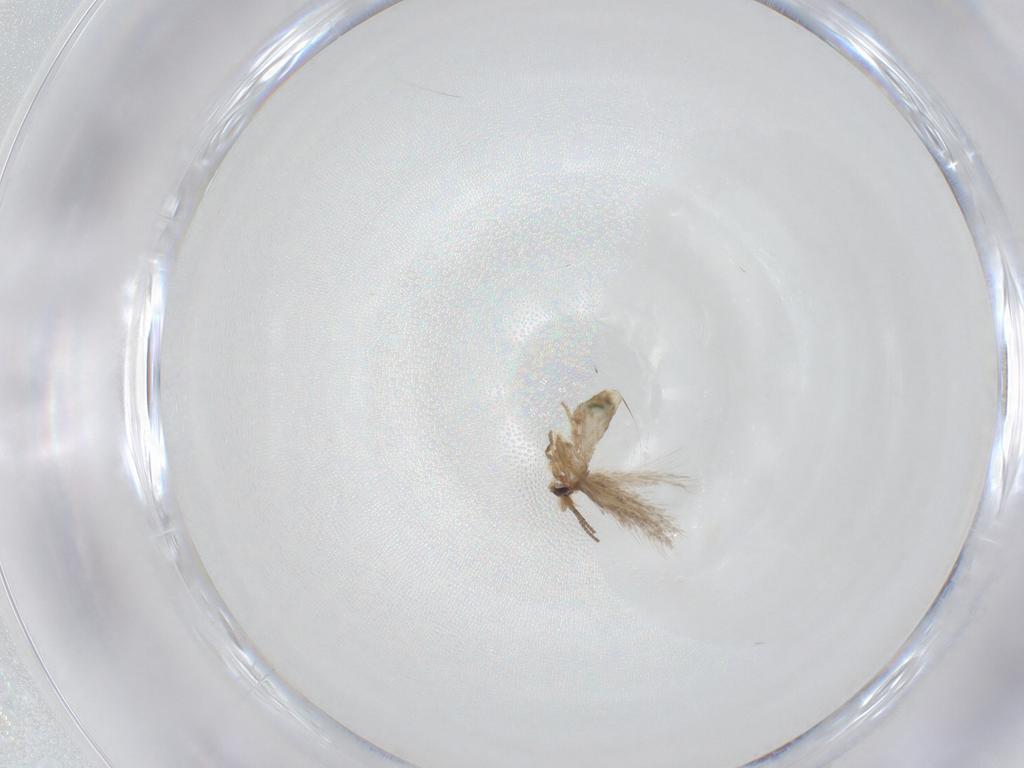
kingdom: Animalia
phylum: Arthropoda
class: Insecta
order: Lepidoptera
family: Nepticulidae
